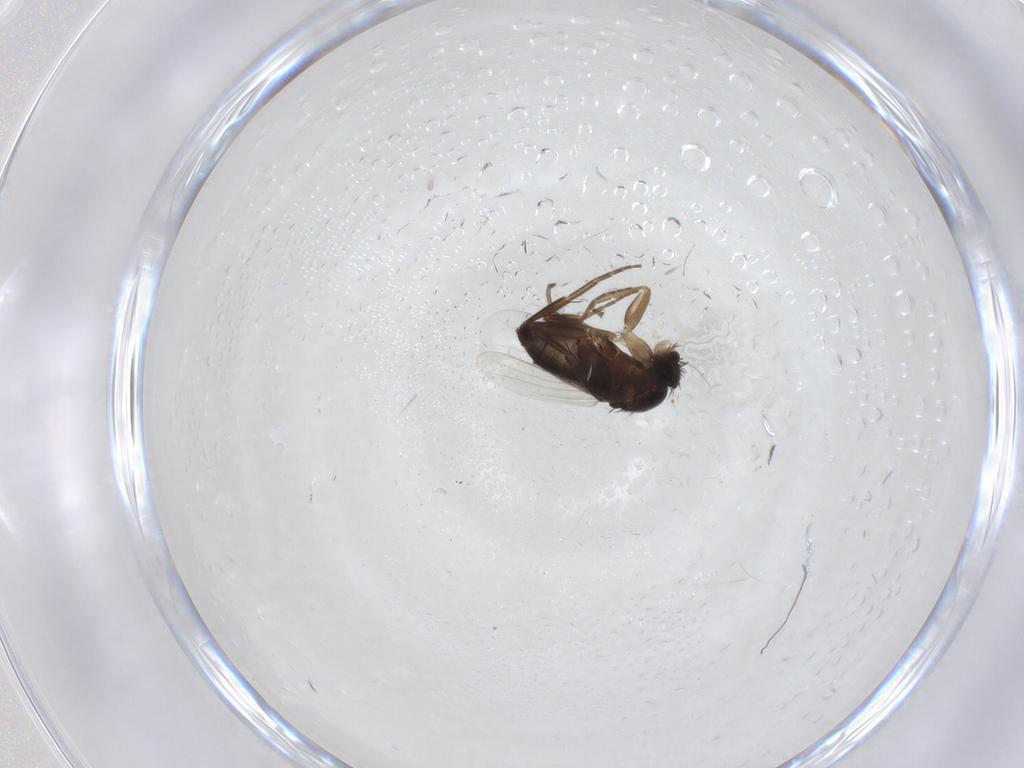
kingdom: Animalia
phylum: Arthropoda
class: Insecta
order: Diptera
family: Phoridae
